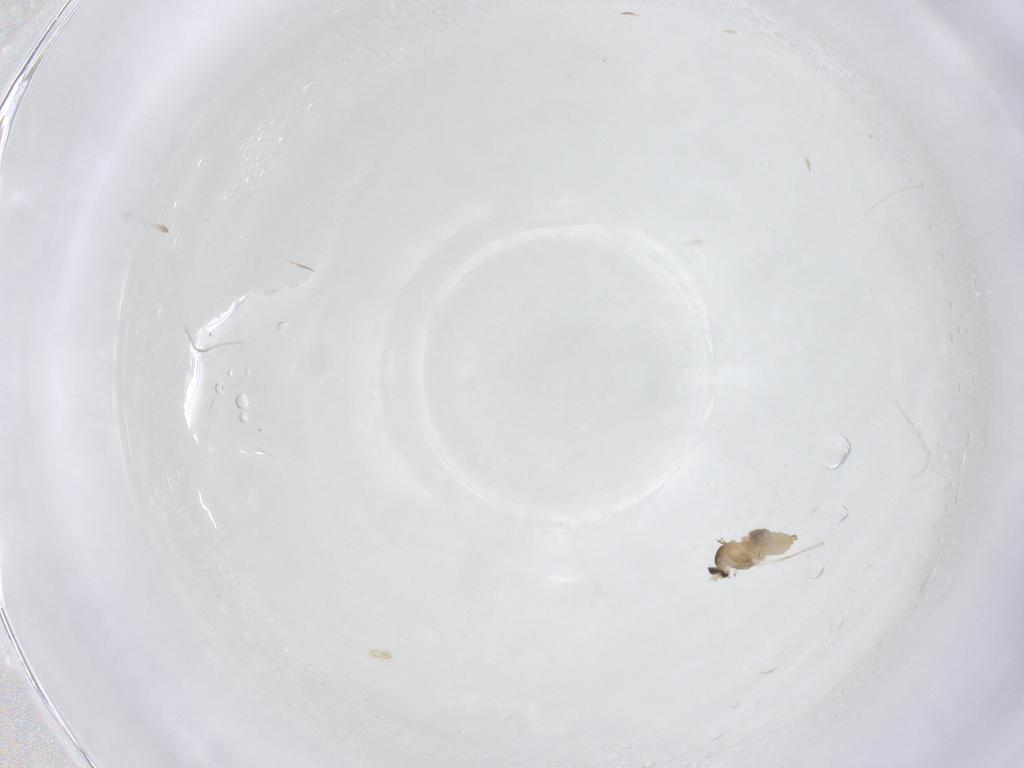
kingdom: Animalia
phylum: Arthropoda
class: Insecta
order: Diptera
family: Cecidomyiidae
